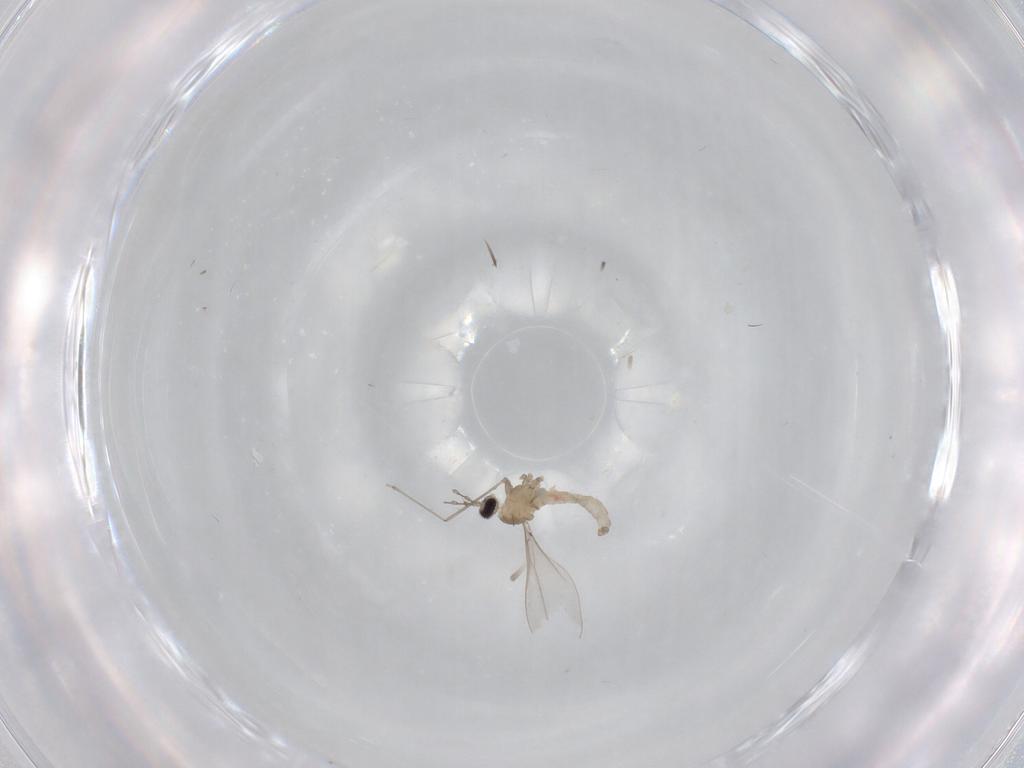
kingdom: Animalia
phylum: Arthropoda
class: Insecta
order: Diptera
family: Cecidomyiidae
